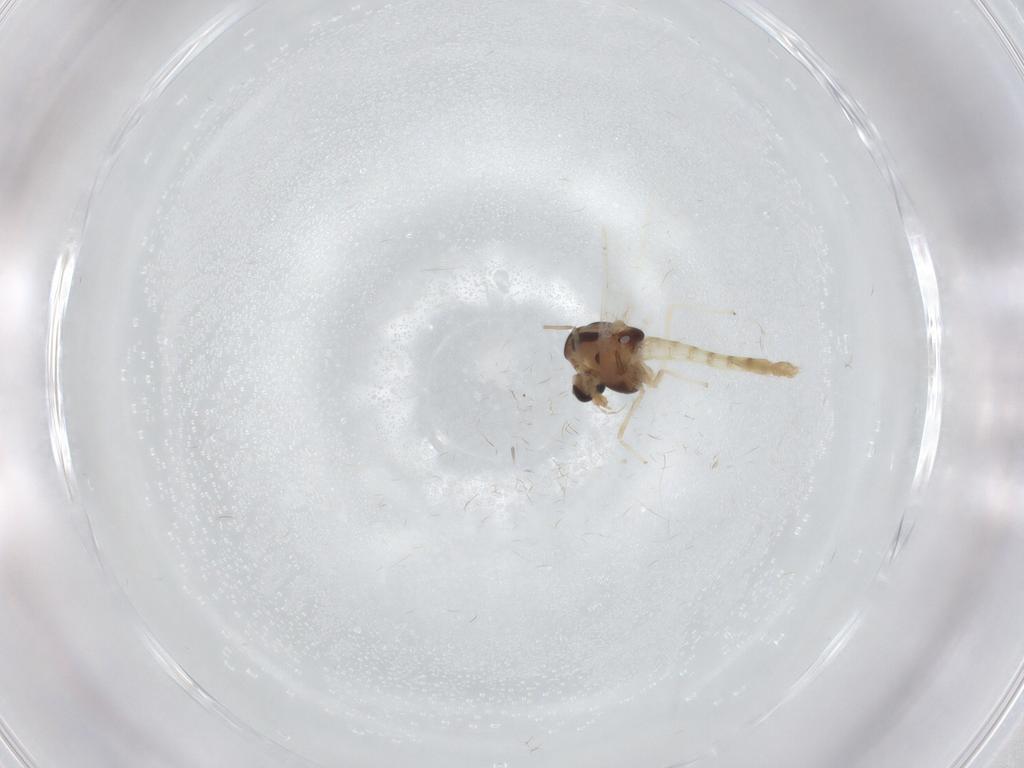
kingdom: Animalia
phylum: Arthropoda
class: Insecta
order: Diptera
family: Chironomidae
